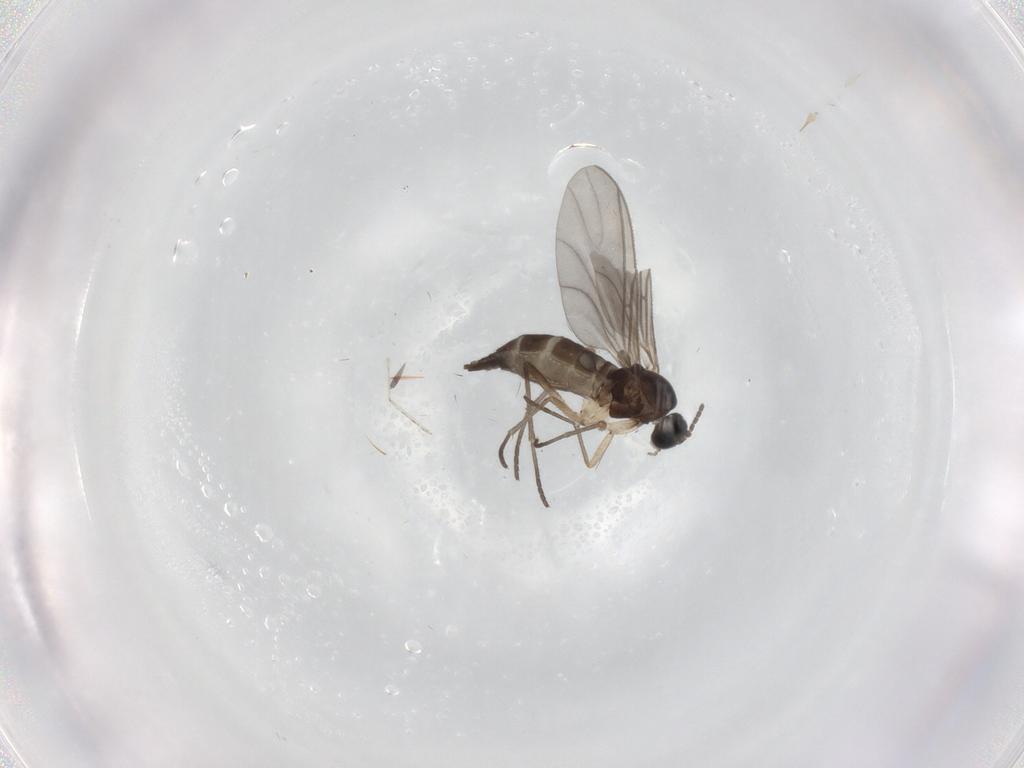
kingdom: Animalia
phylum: Arthropoda
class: Insecta
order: Diptera
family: Sciaridae
